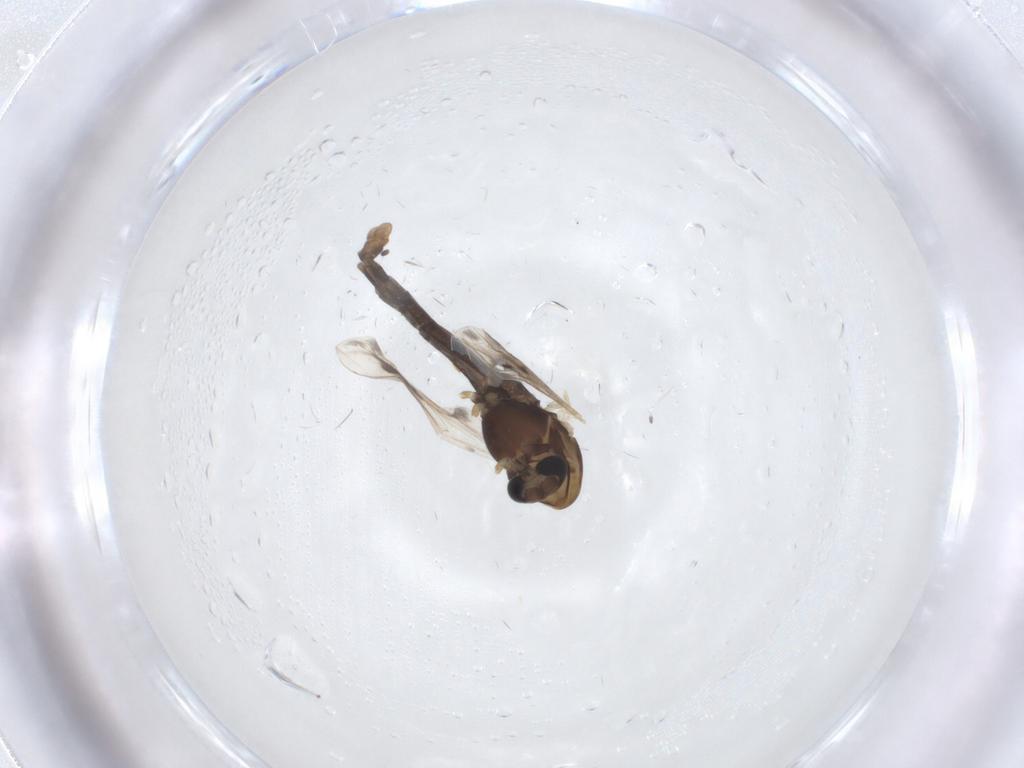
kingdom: Animalia
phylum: Arthropoda
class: Insecta
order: Diptera
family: Chironomidae
